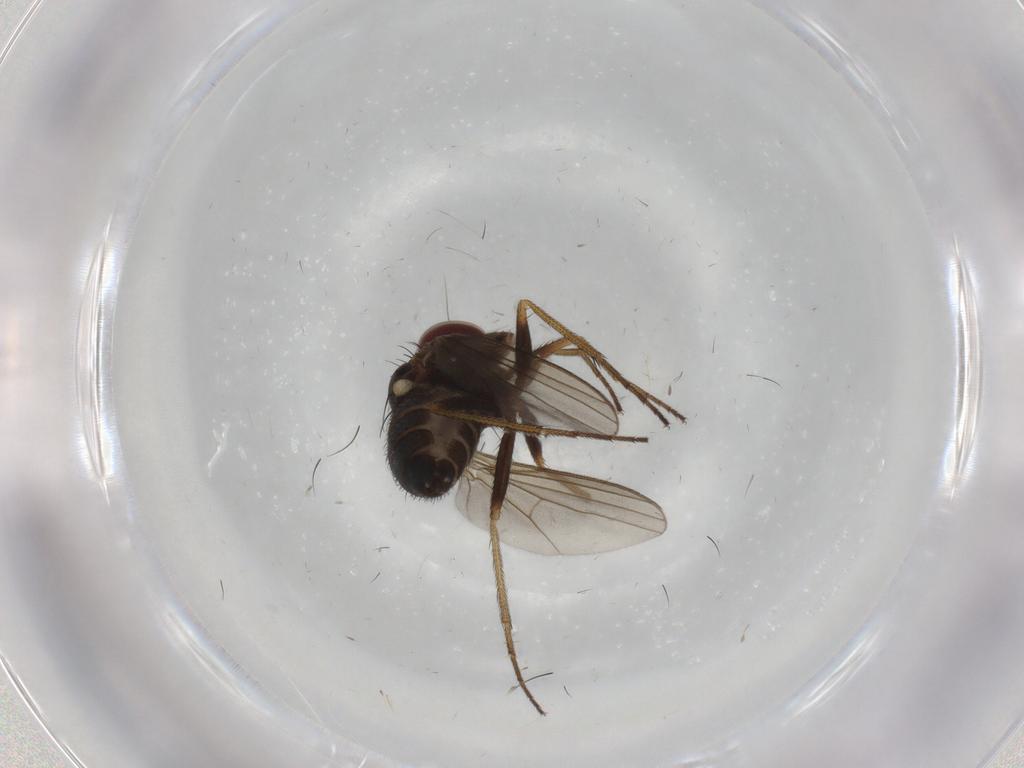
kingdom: Animalia
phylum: Arthropoda
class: Insecta
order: Diptera
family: Dolichopodidae
